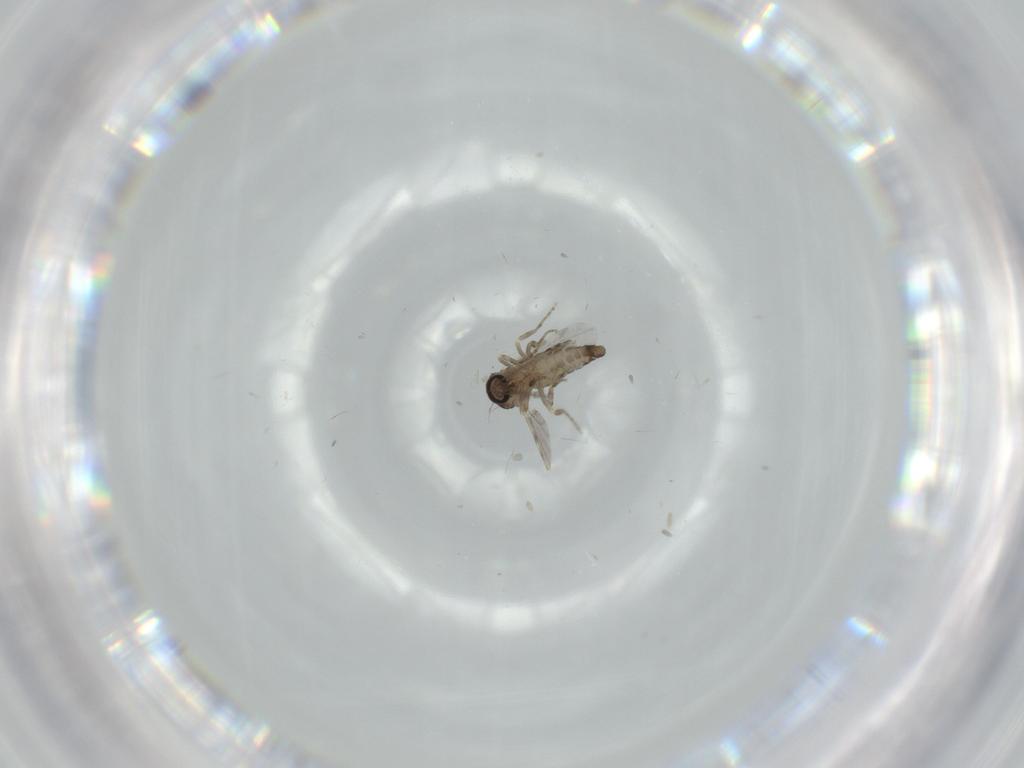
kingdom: Animalia
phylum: Arthropoda
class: Insecta
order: Diptera
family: Ceratopogonidae
